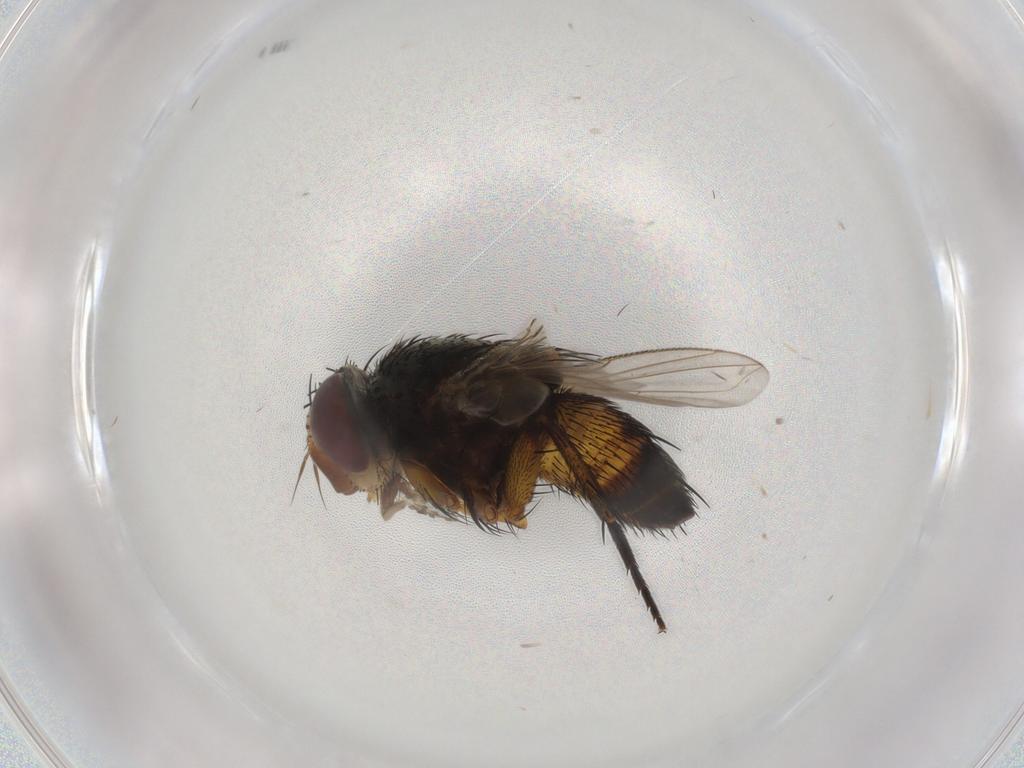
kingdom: Animalia
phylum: Arthropoda
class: Insecta
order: Diptera
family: Tachinidae
